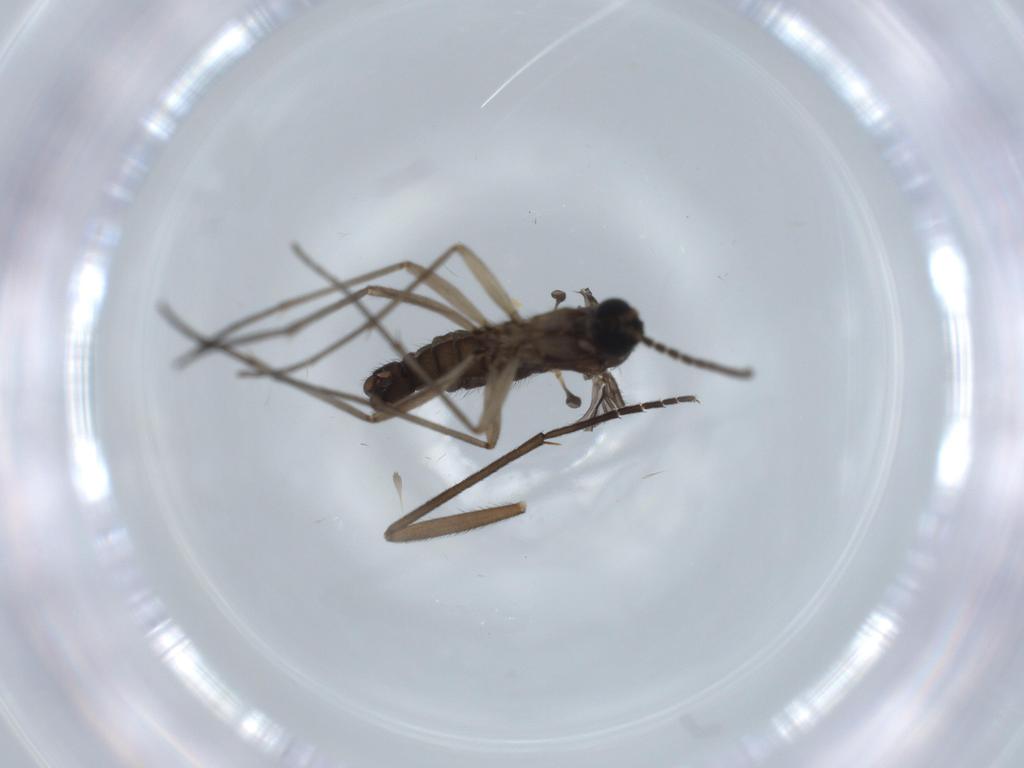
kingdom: Animalia
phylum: Arthropoda
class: Insecta
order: Diptera
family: Sciaridae
